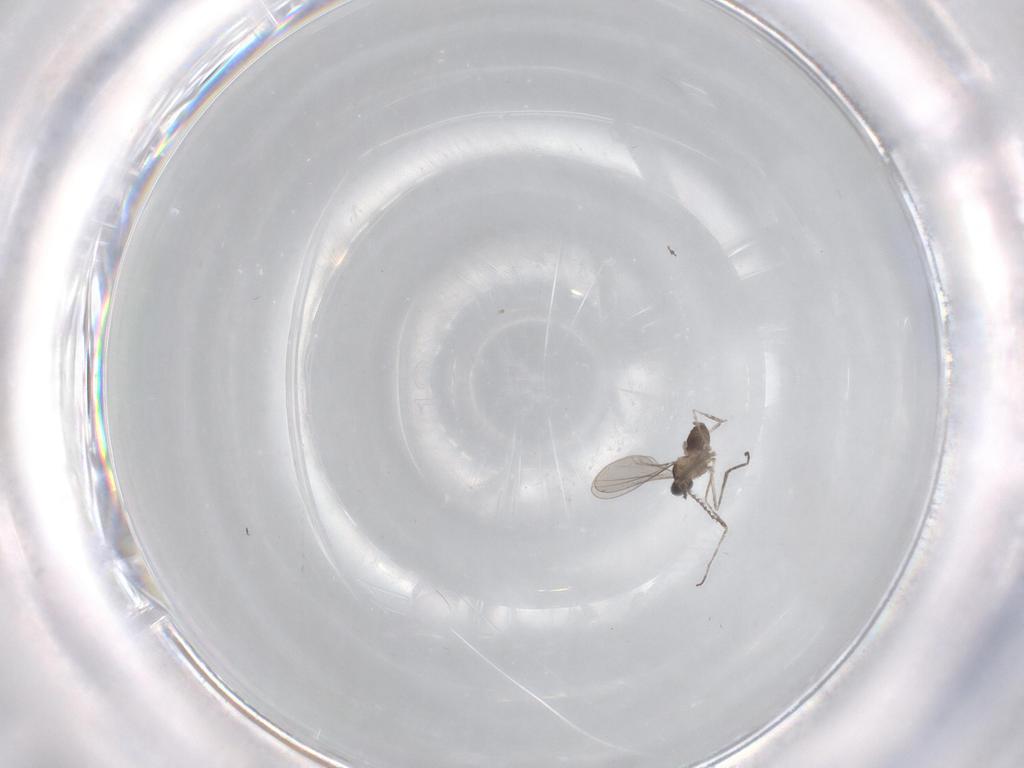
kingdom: Animalia
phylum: Arthropoda
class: Insecta
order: Diptera
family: Cecidomyiidae
